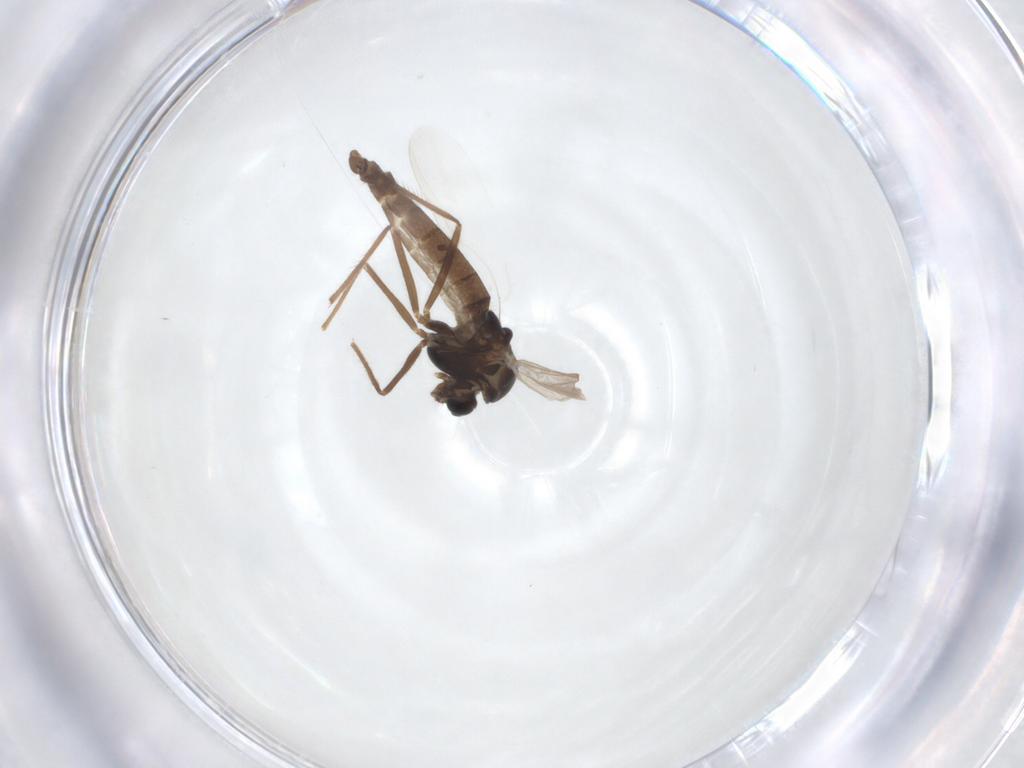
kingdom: Animalia
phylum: Arthropoda
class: Insecta
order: Diptera
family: Chironomidae
